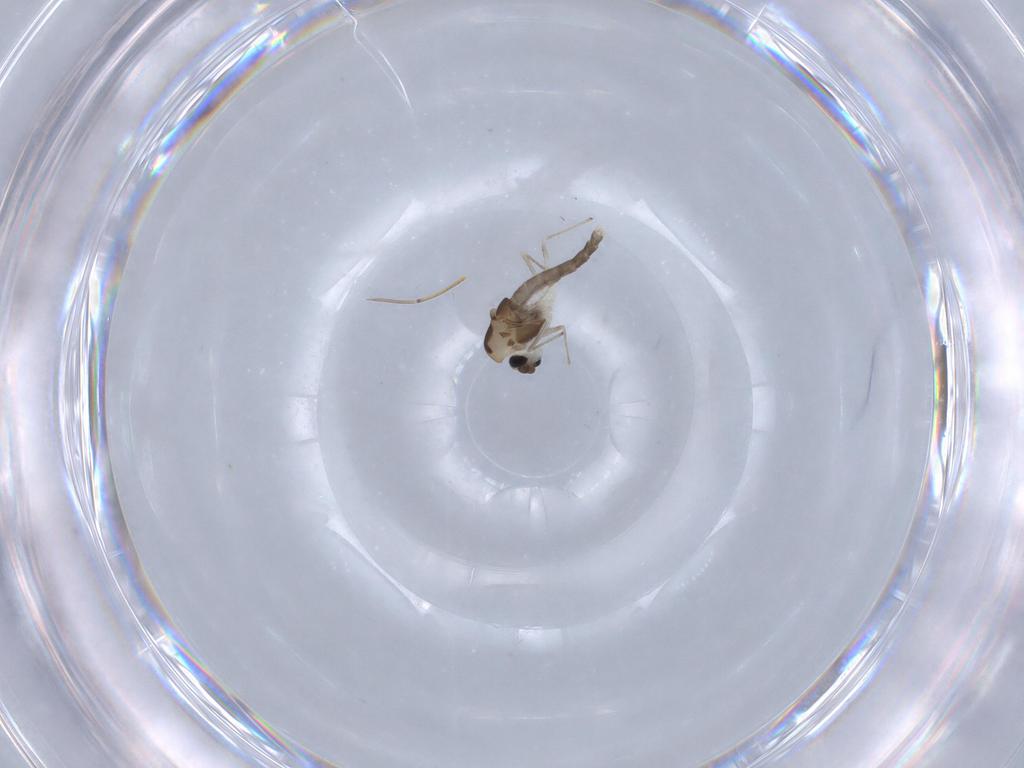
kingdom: Animalia
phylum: Arthropoda
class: Insecta
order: Diptera
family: Chironomidae
